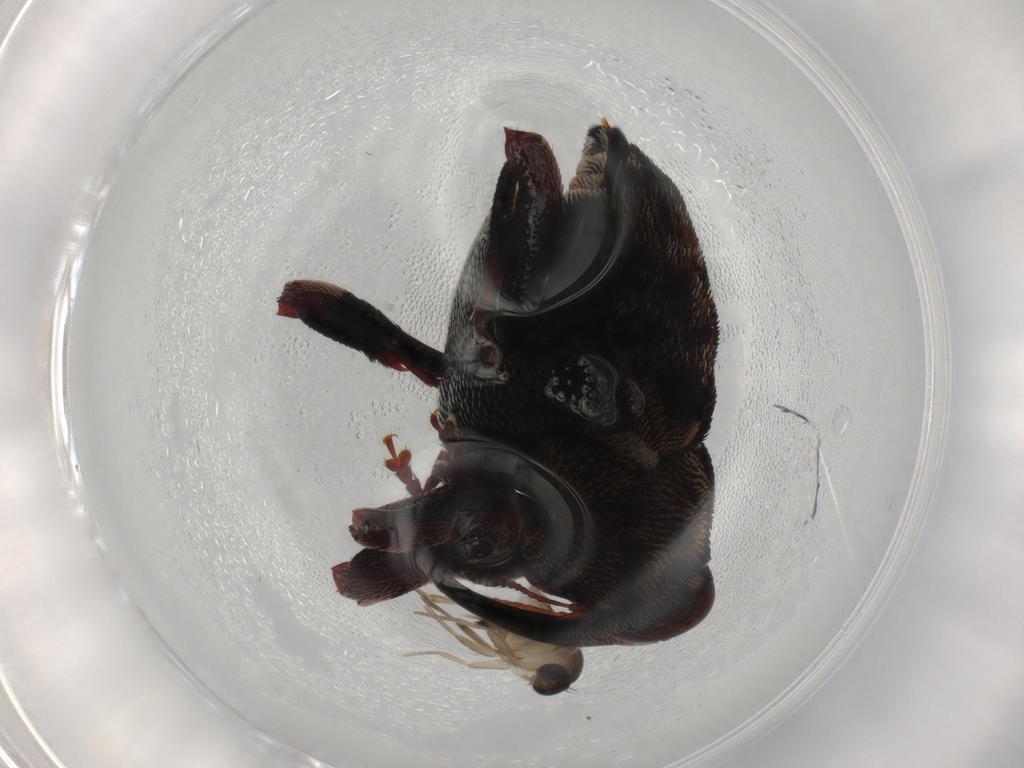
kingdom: Animalia
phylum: Arthropoda
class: Insecta
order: Coleoptera
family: Curculionidae
